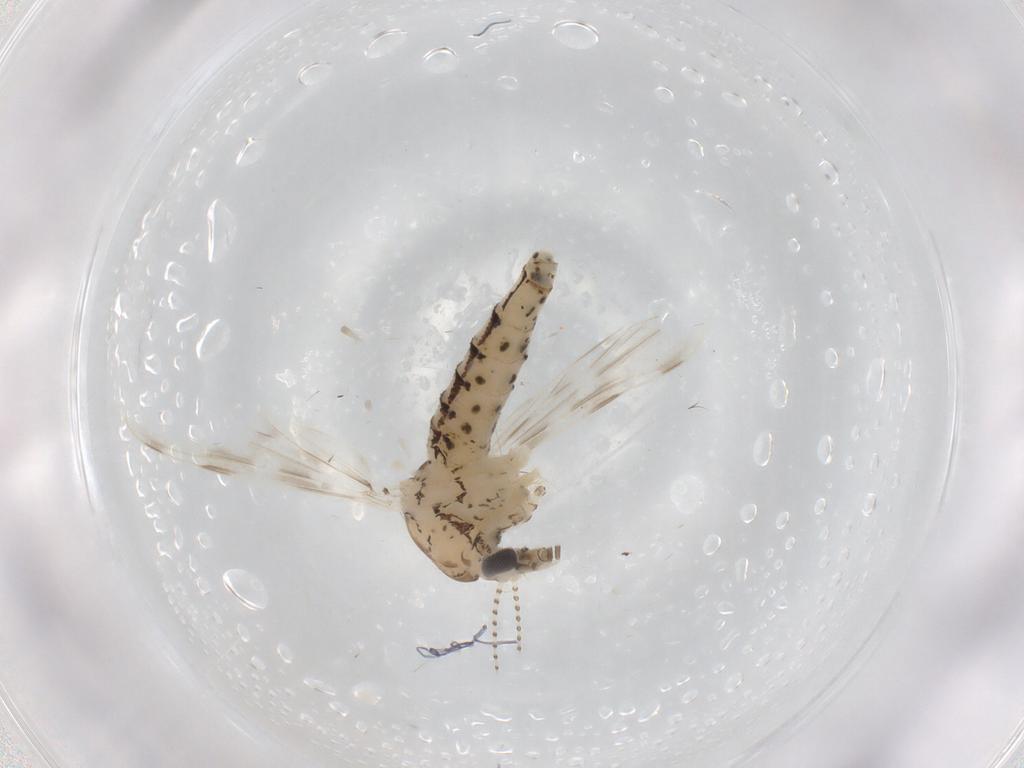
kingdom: Animalia
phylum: Arthropoda
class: Insecta
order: Diptera
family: Chaoboridae
